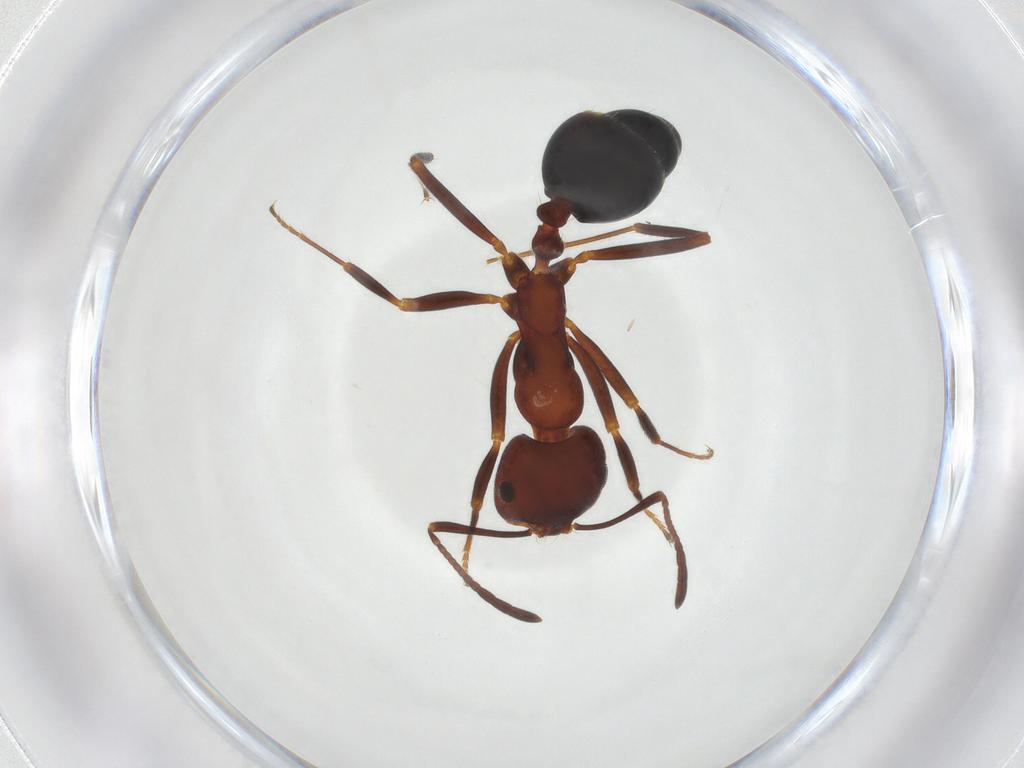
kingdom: Animalia
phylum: Arthropoda
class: Insecta
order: Hymenoptera
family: Formicidae
